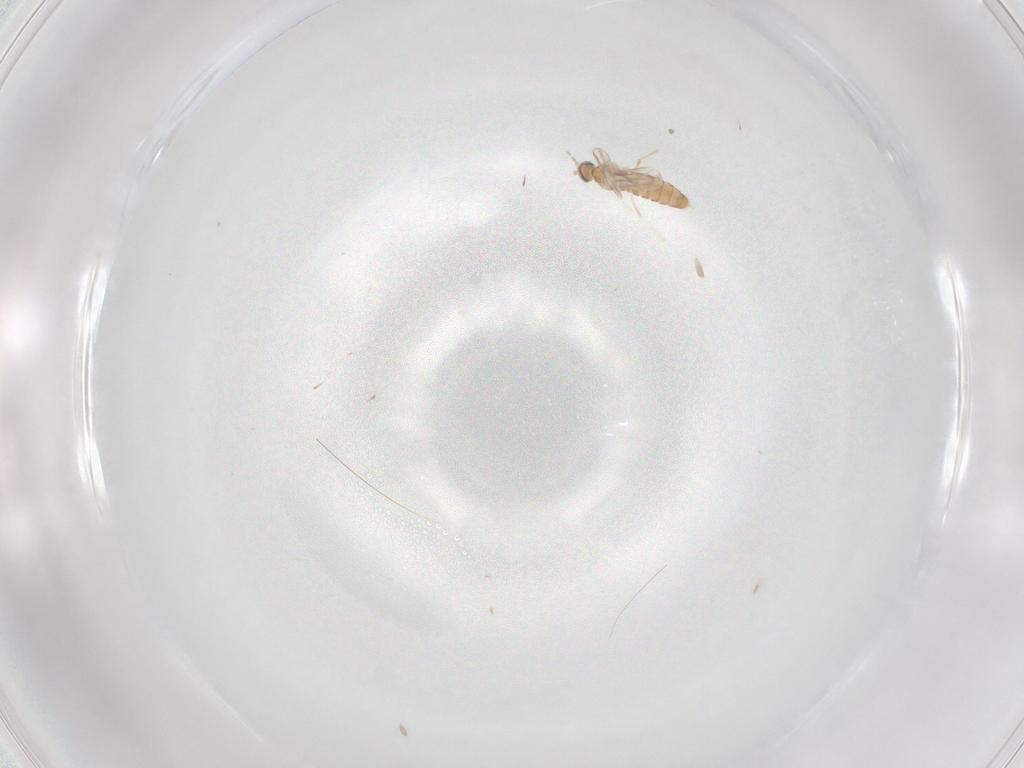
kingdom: Animalia
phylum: Arthropoda
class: Insecta
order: Diptera
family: Cecidomyiidae
